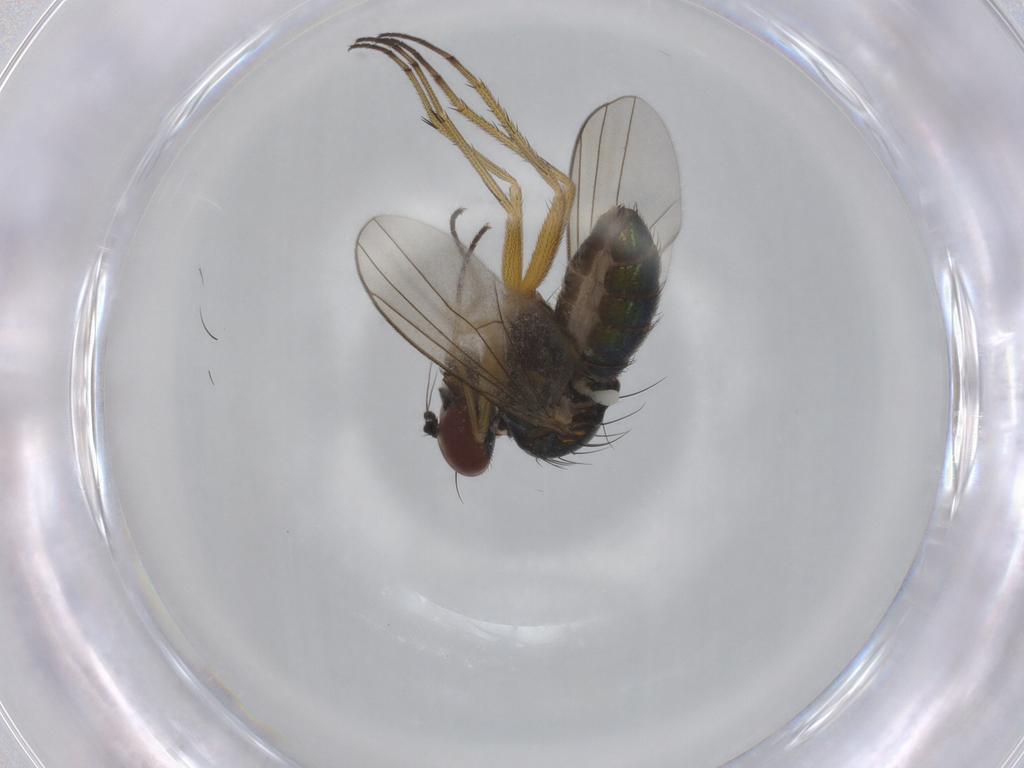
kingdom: Animalia
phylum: Arthropoda
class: Insecta
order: Diptera
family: Dolichopodidae
